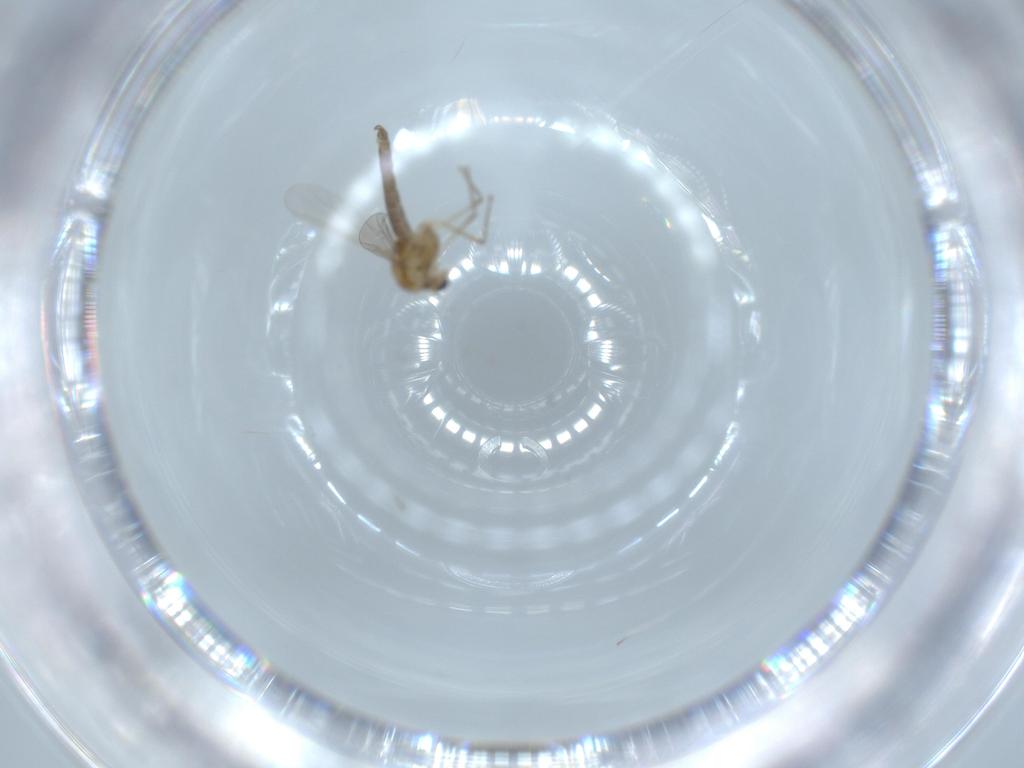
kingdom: Animalia
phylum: Arthropoda
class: Insecta
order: Diptera
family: Chironomidae
